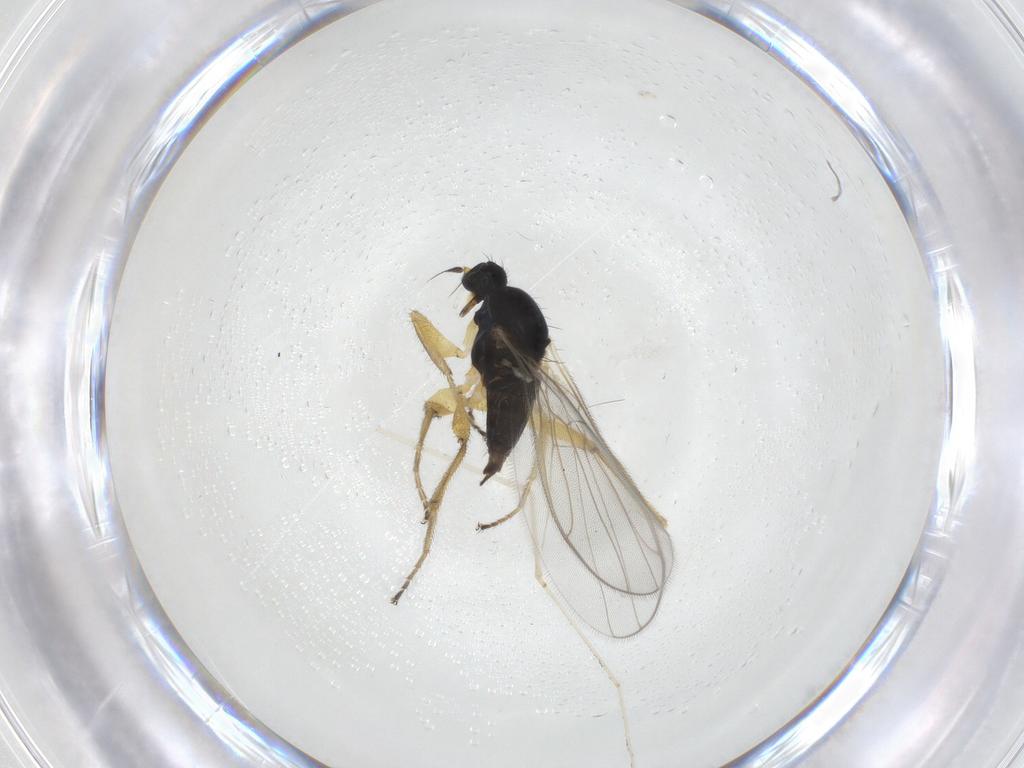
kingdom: Animalia
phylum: Arthropoda
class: Insecta
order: Diptera
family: Hybotidae
